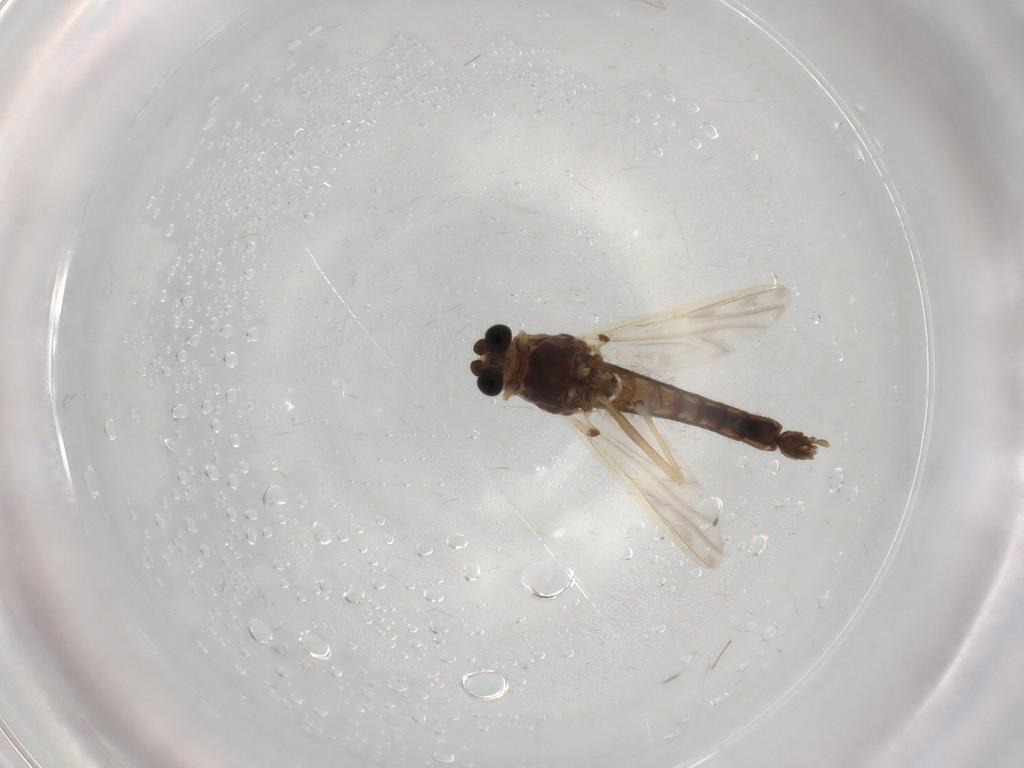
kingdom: Animalia
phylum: Arthropoda
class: Insecta
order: Diptera
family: Chironomidae
